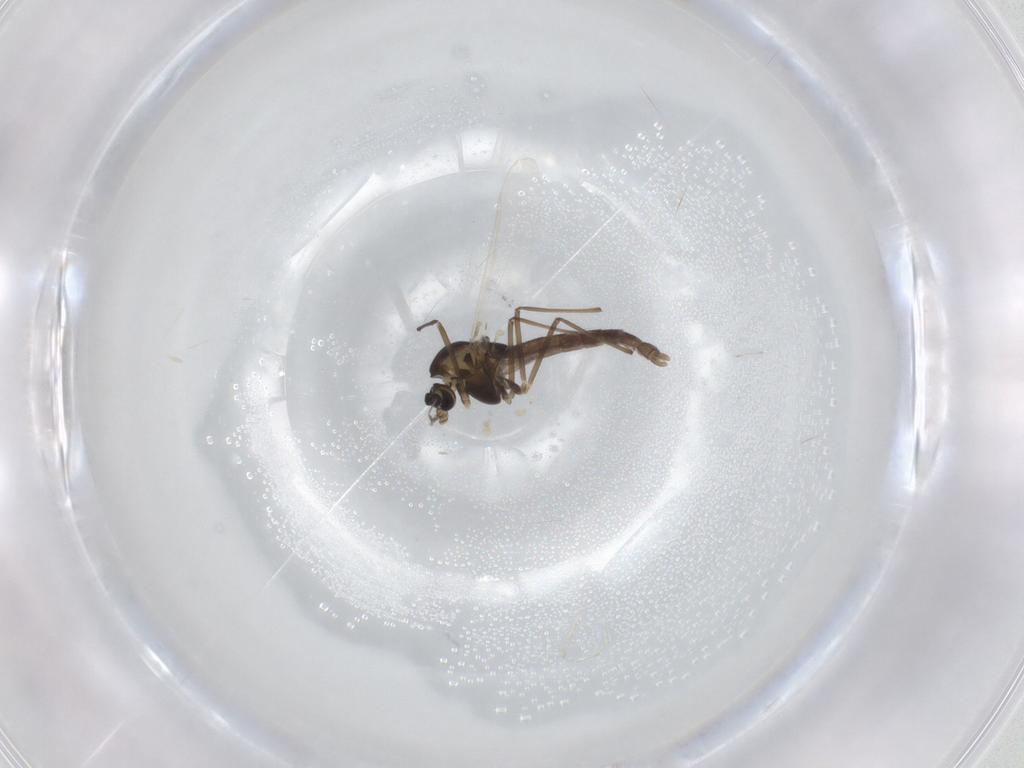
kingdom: Animalia
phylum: Arthropoda
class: Insecta
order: Diptera
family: Chironomidae
